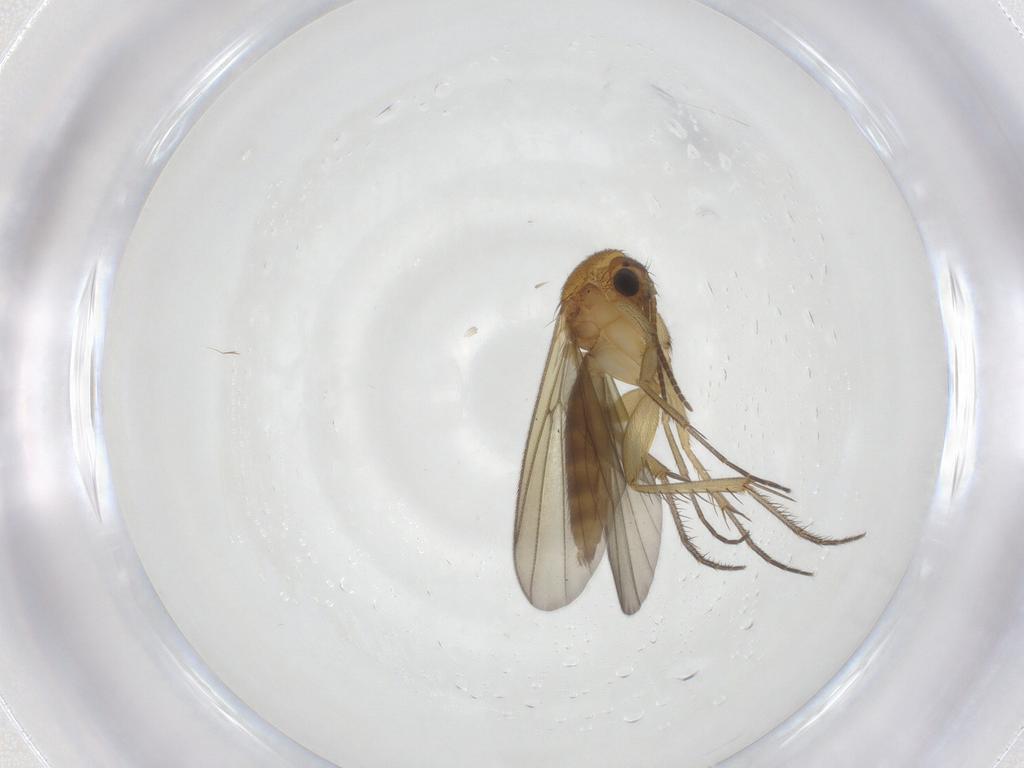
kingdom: Animalia
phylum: Arthropoda
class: Insecta
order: Diptera
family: Mycetophilidae
